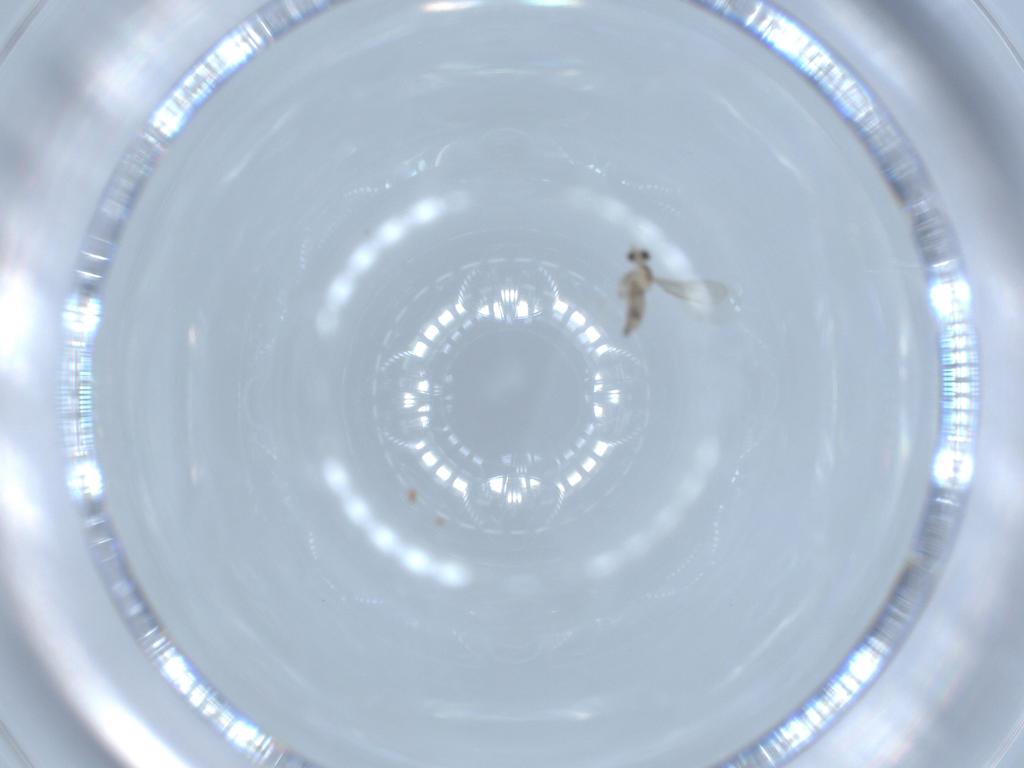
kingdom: Animalia
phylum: Arthropoda
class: Insecta
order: Diptera
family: Cecidomyiidae
